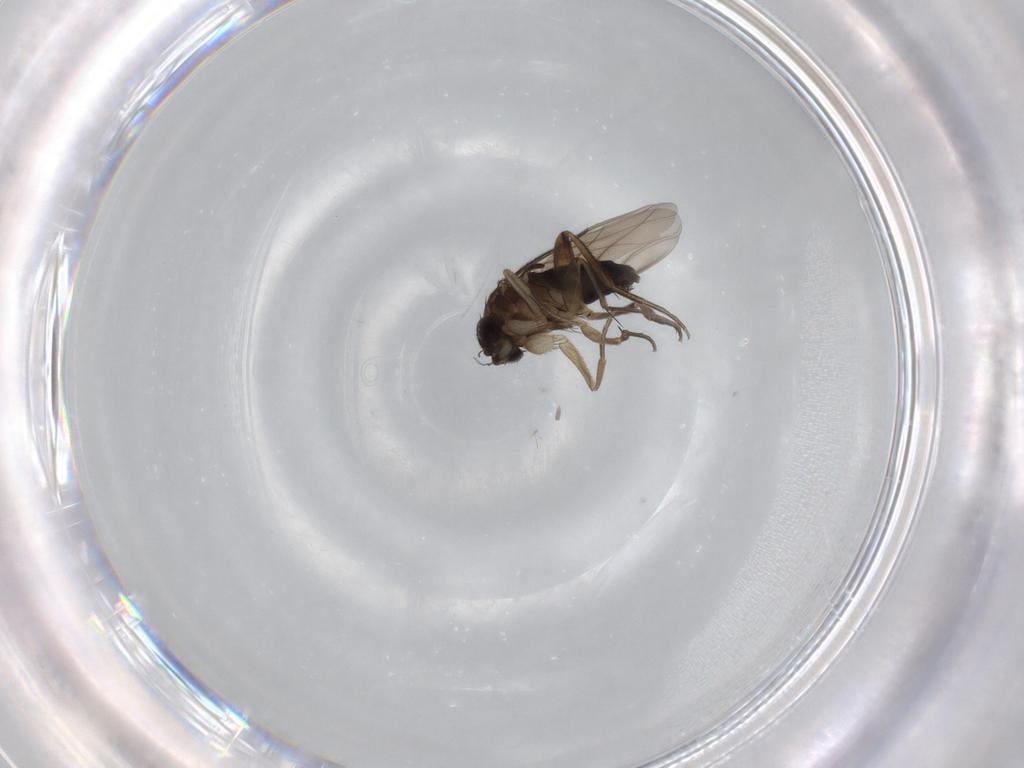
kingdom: Animalia
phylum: Arthropoda
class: Insecta
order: Diptera
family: Phoridae
